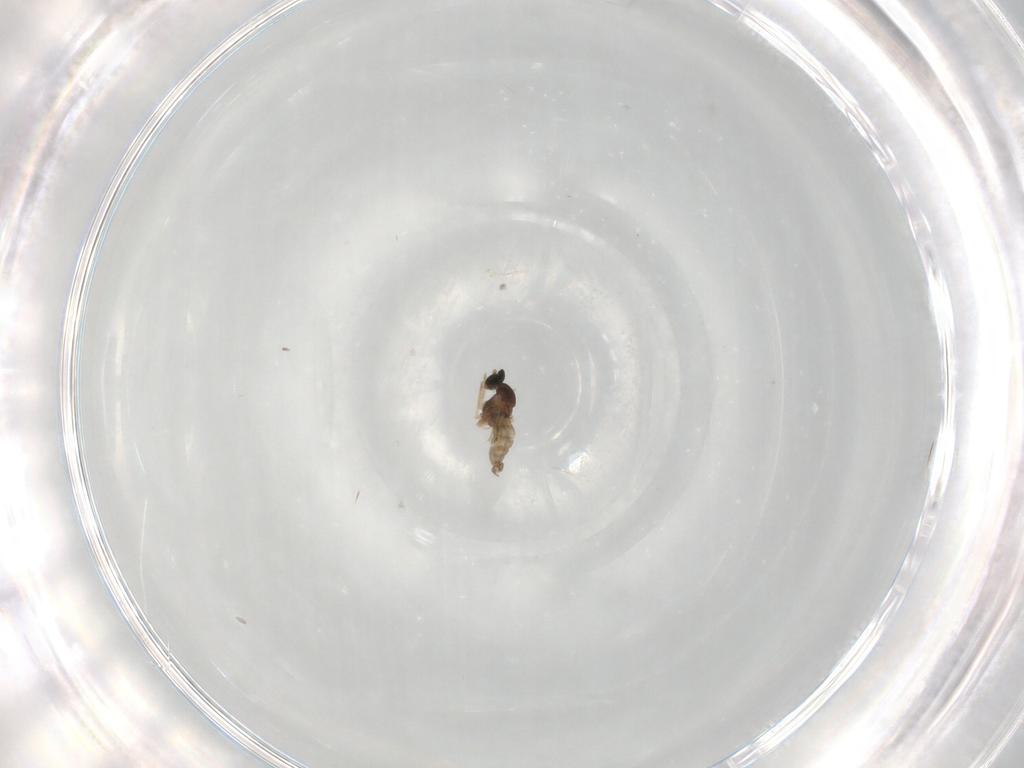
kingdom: Animalia
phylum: Arthropoda
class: Insecta
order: Diptera
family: Cecidomyiidae
